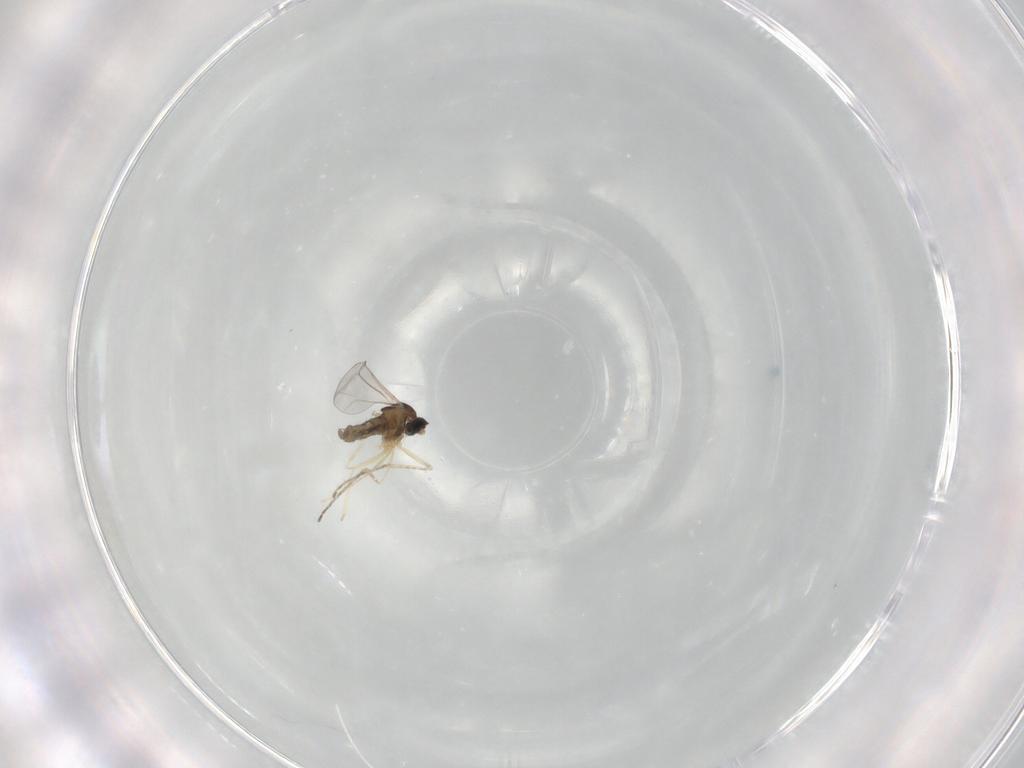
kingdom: Animalia
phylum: Arthropoda
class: Insecta
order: Diptera
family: Cecidomyiidae
